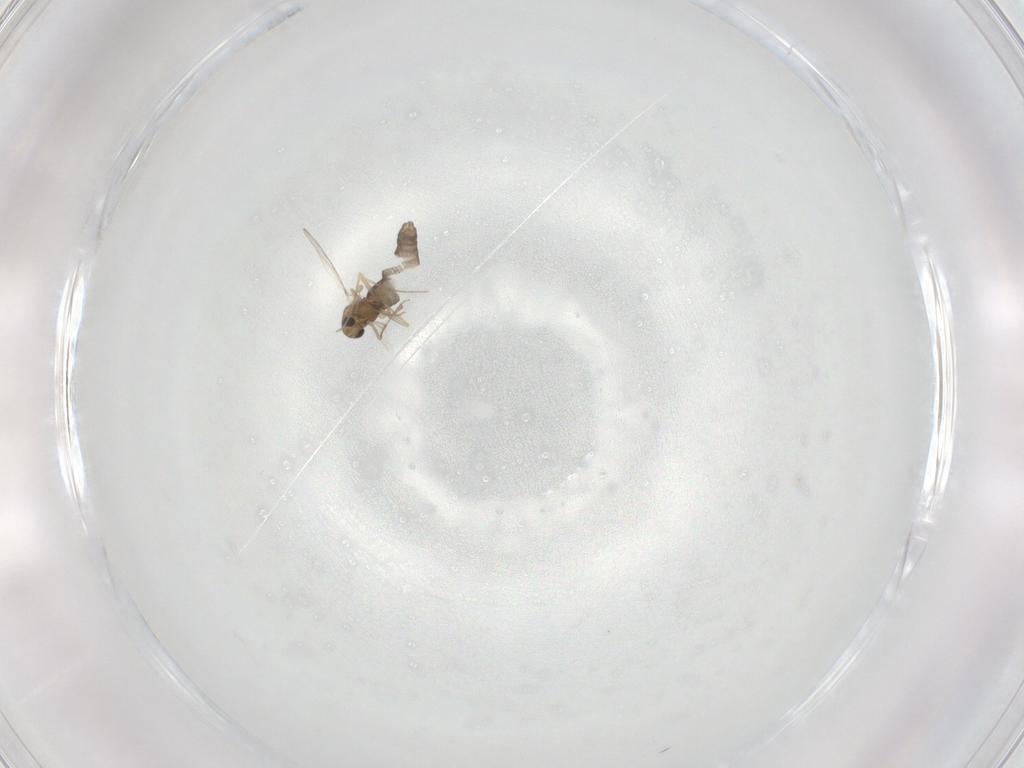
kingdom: Animalia
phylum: Arthropoda
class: Insecta
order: Diptera
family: Chironomidae
